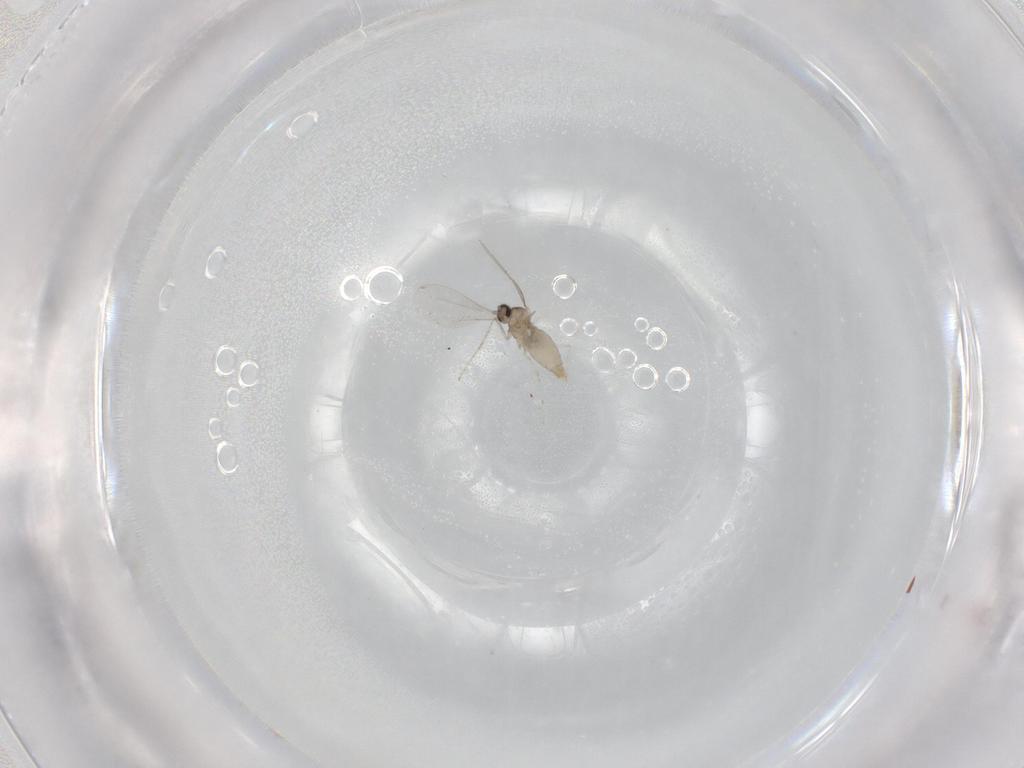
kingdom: Animalia
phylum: Arthropoda
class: Insecta
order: Diptera
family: Cecidomyiidae
